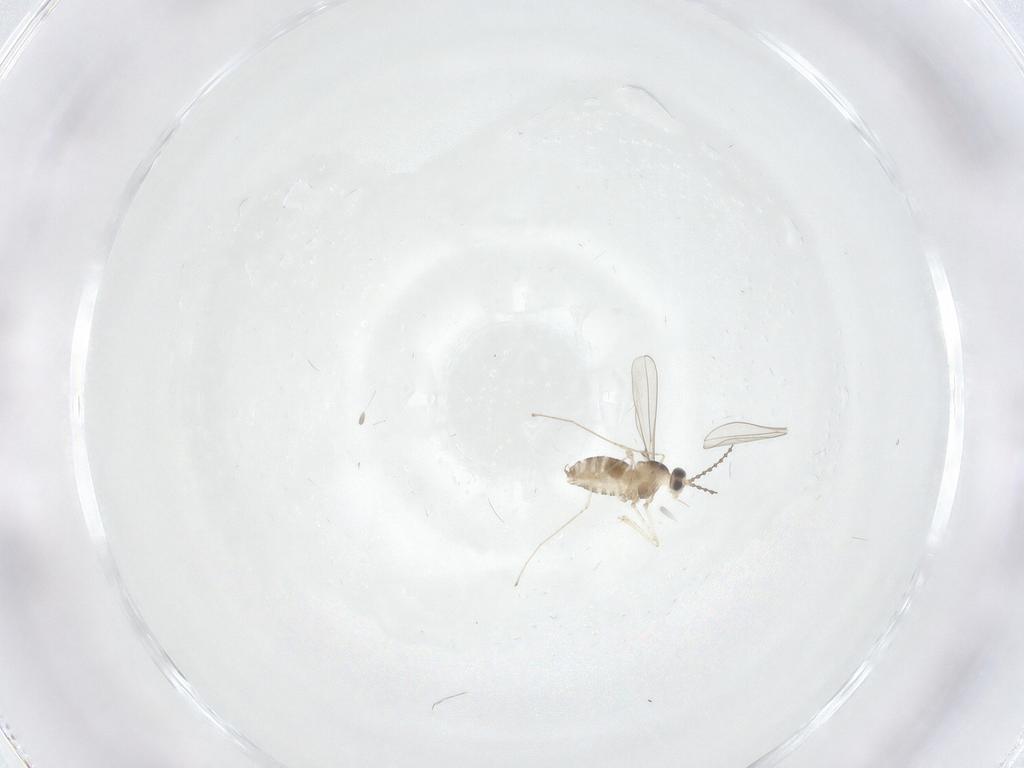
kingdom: Animalia
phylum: Arthropoda
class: Insecta
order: Diptera
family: Cecidomyiidae
